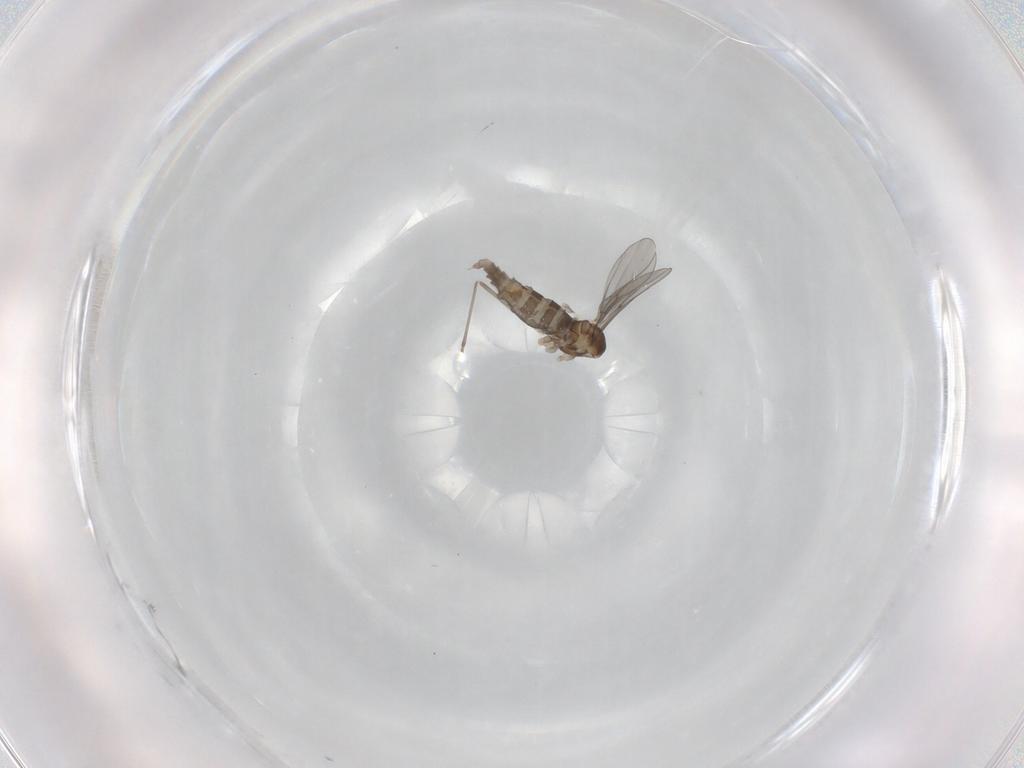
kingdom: Animalia
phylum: Arthropoda
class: Insecta
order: Diptera
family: Cecidomyiidae
